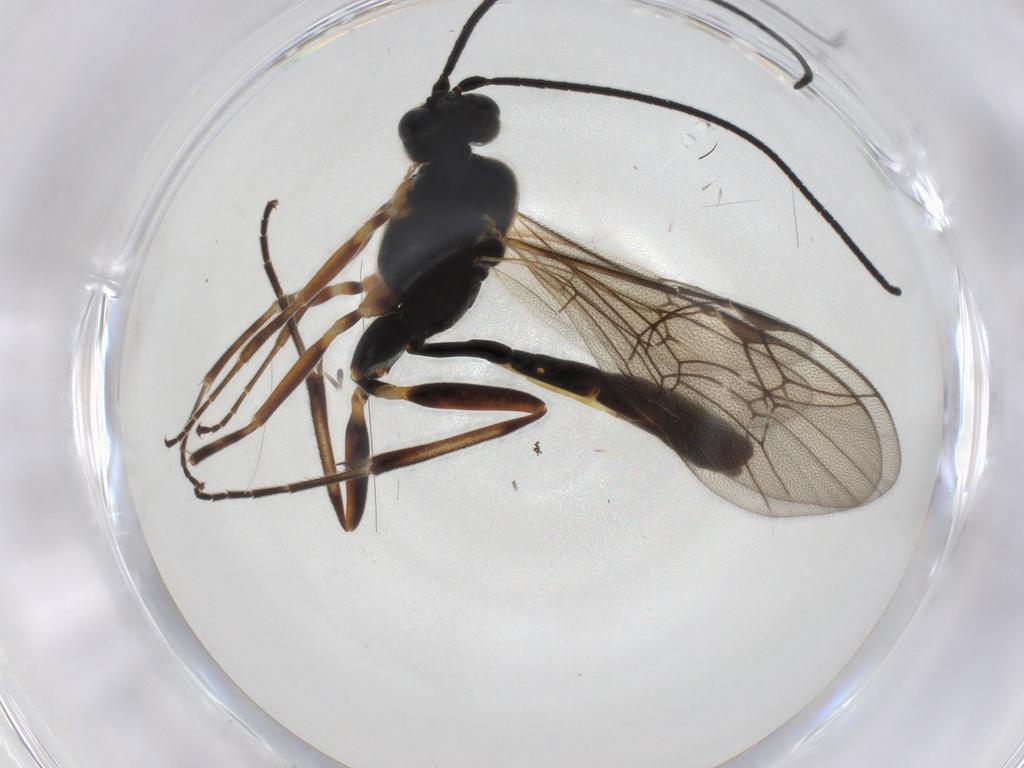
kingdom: Animalia
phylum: Arthropoda
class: Insecta
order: Hymenoptera
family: Ichneumonidae
